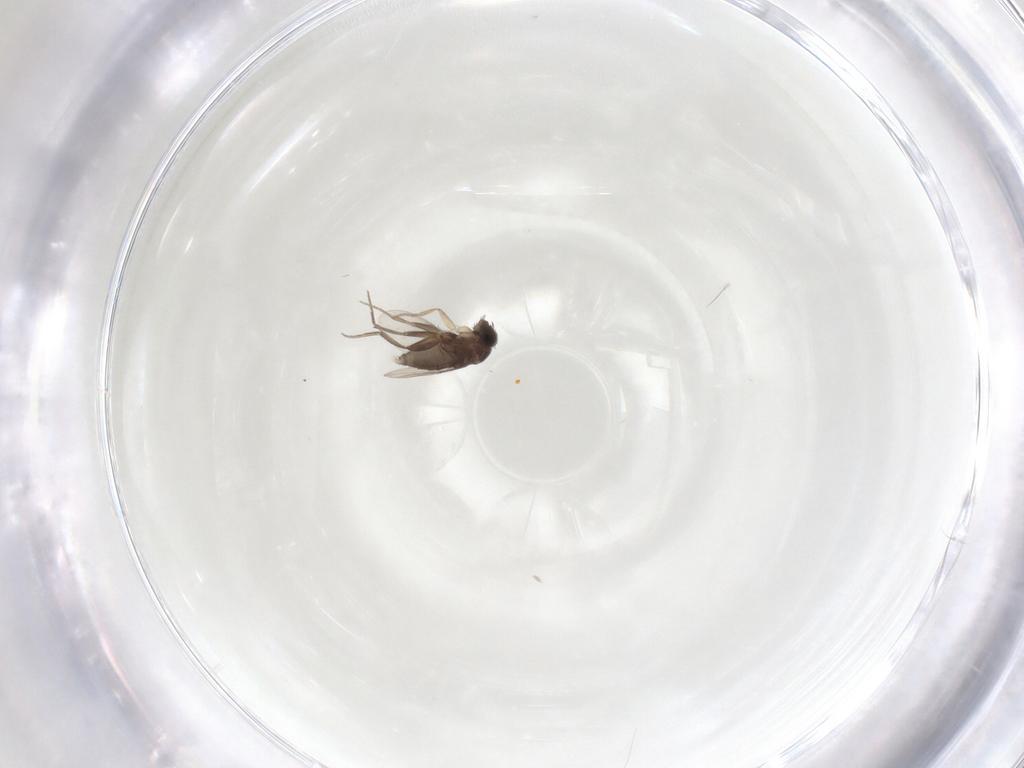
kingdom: Animalia
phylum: Arthropoda
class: Insecta
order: Diptera
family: Phoridae
